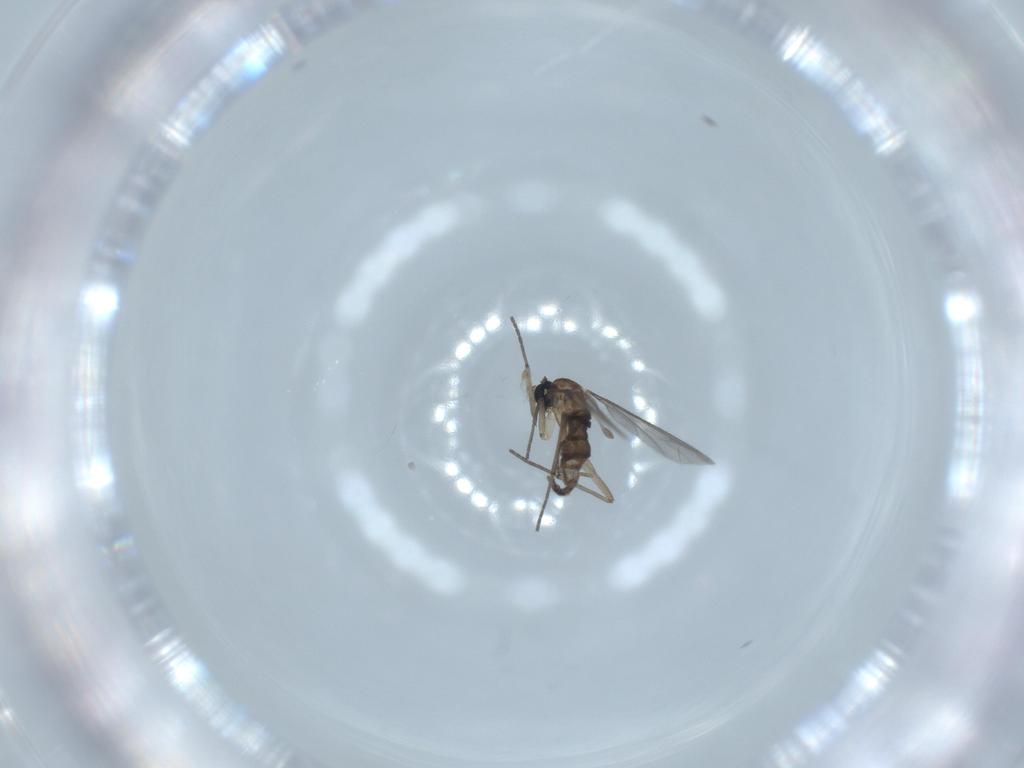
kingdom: Animalia
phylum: Arthropoda
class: Insecta
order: Diptera
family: Sciaridae
